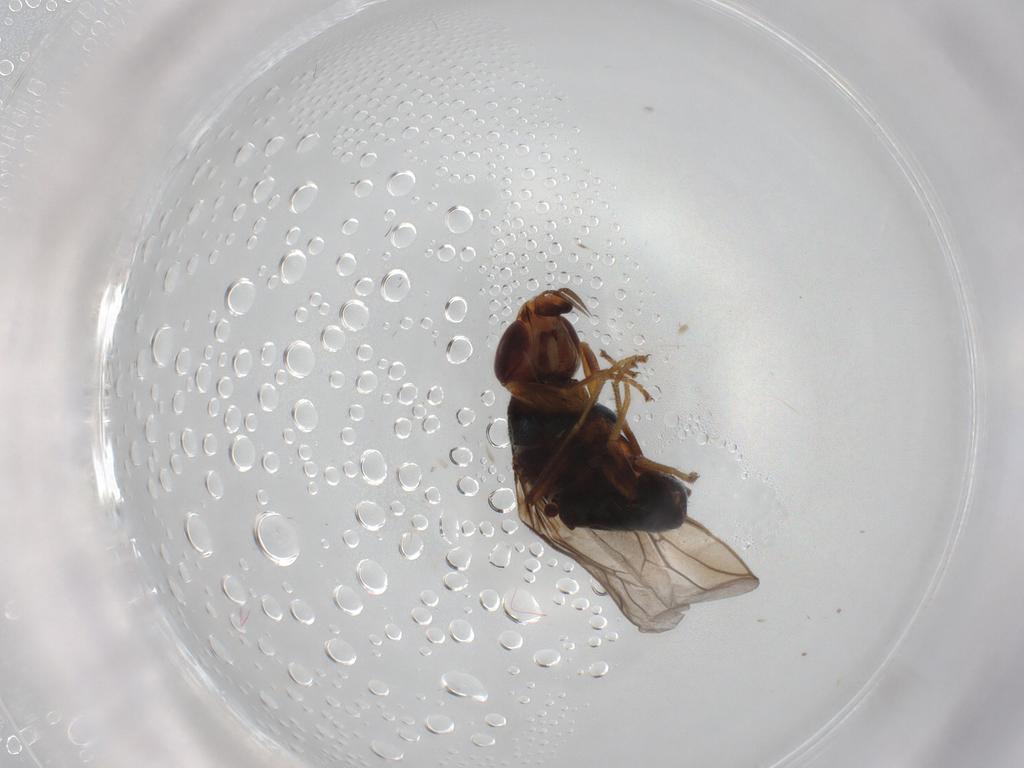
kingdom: Animalia
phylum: Arthropoda
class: Insecta
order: Diptera
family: Chloropidae
